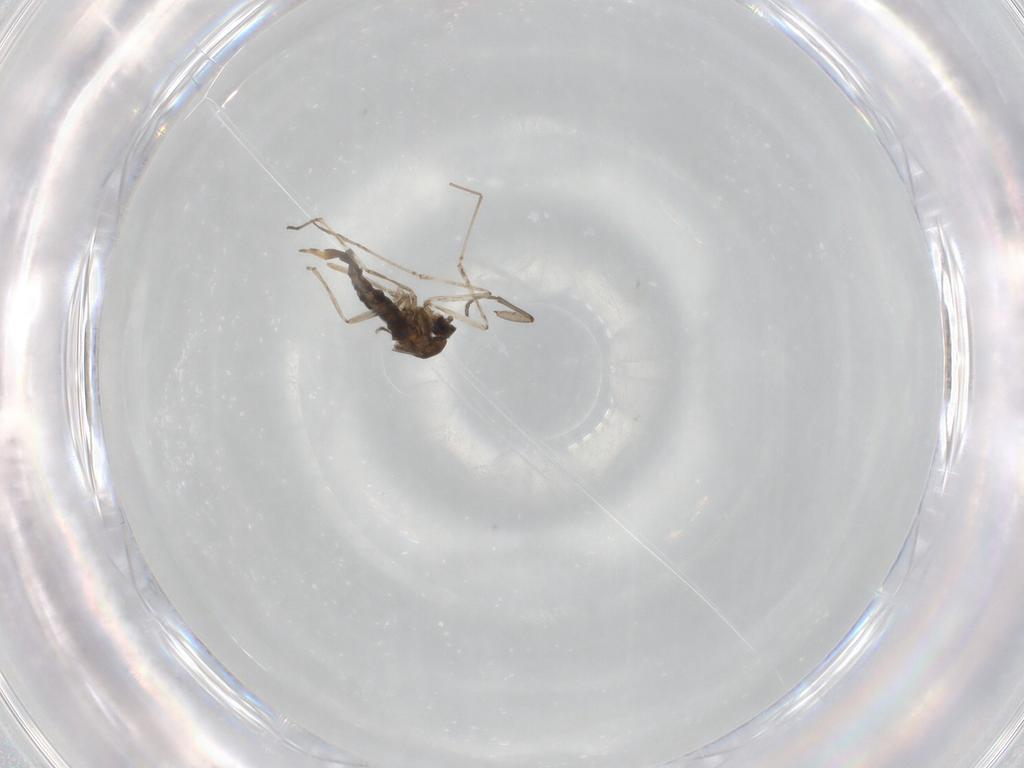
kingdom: Animalia
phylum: Arthropoda
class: Insecta
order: Diptera
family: Cecidomyiidae
